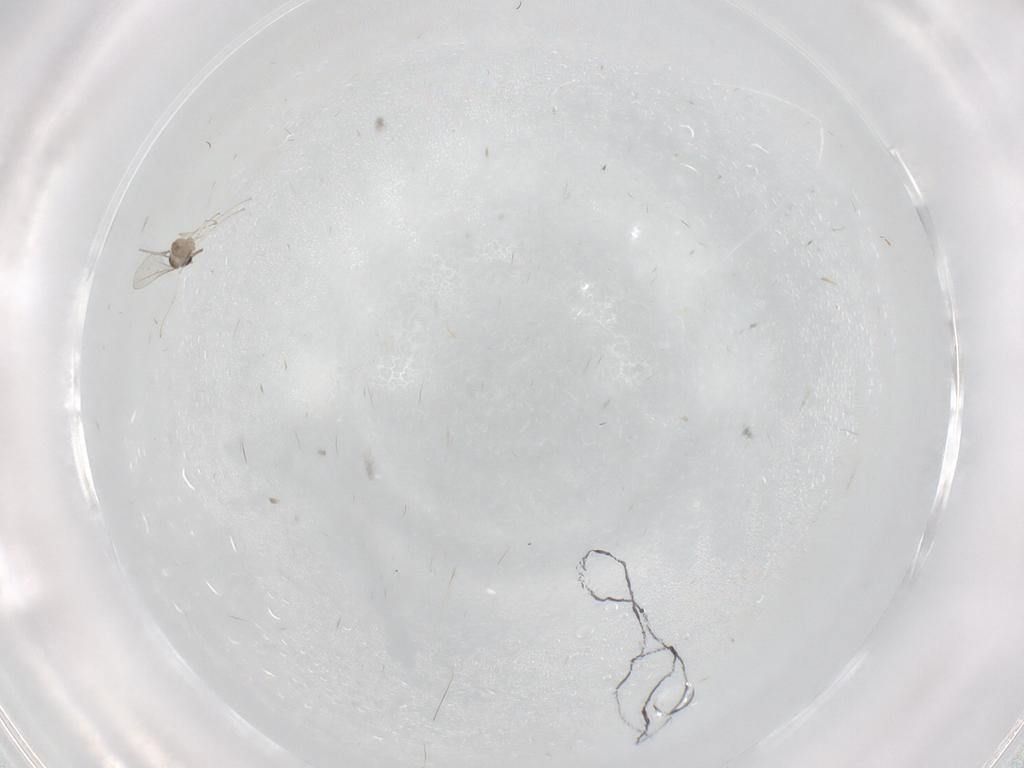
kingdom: Animalia
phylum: Arthropoda
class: Insecta
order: Diptera
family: Cecidomyiidae
